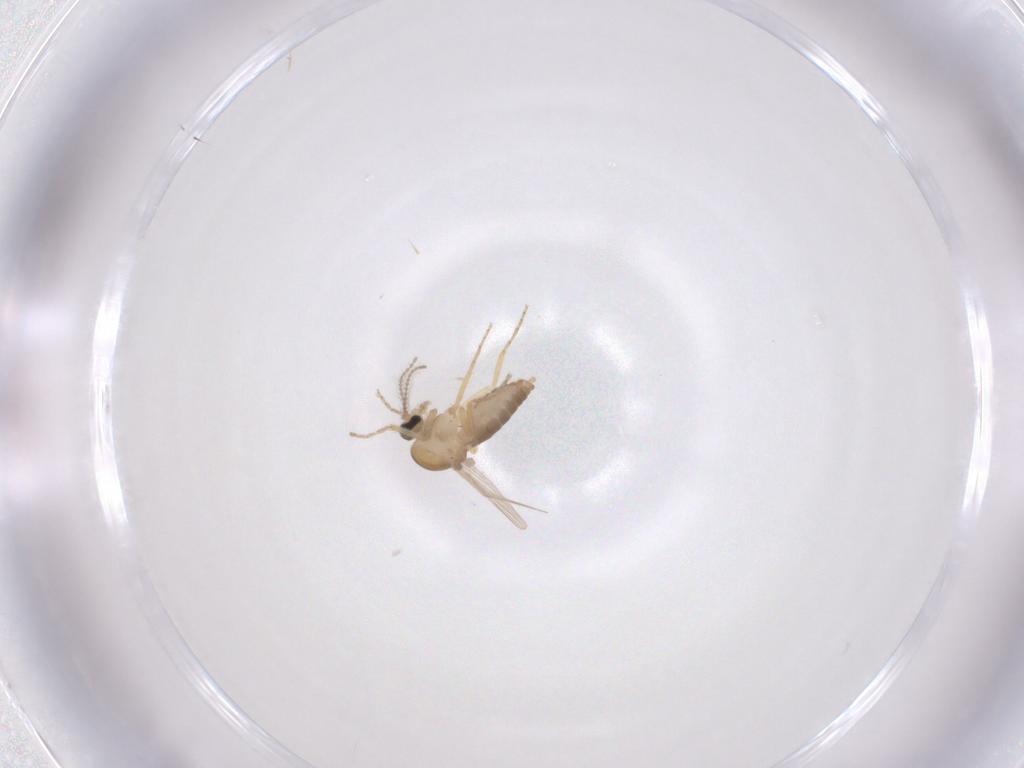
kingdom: Animalia
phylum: Arthropoda
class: Insecta
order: Diptera
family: Ceratopogonidae
